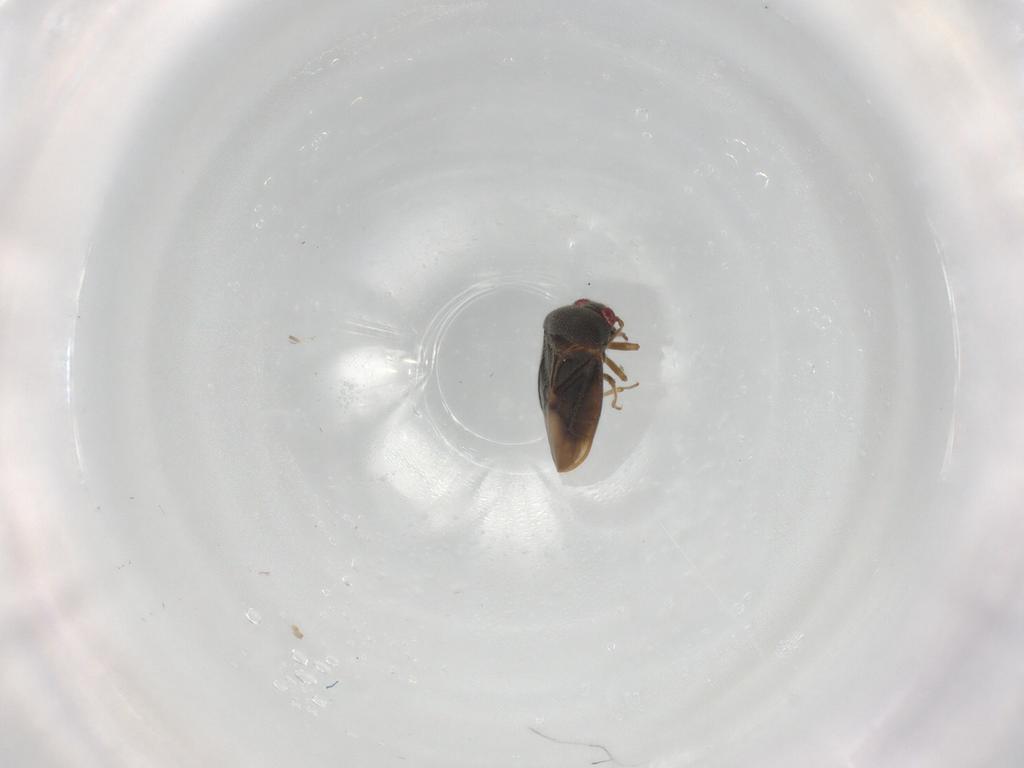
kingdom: Animalia
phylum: Arthropoda
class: Insecta
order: Hemiptera
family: Schizopteridae
